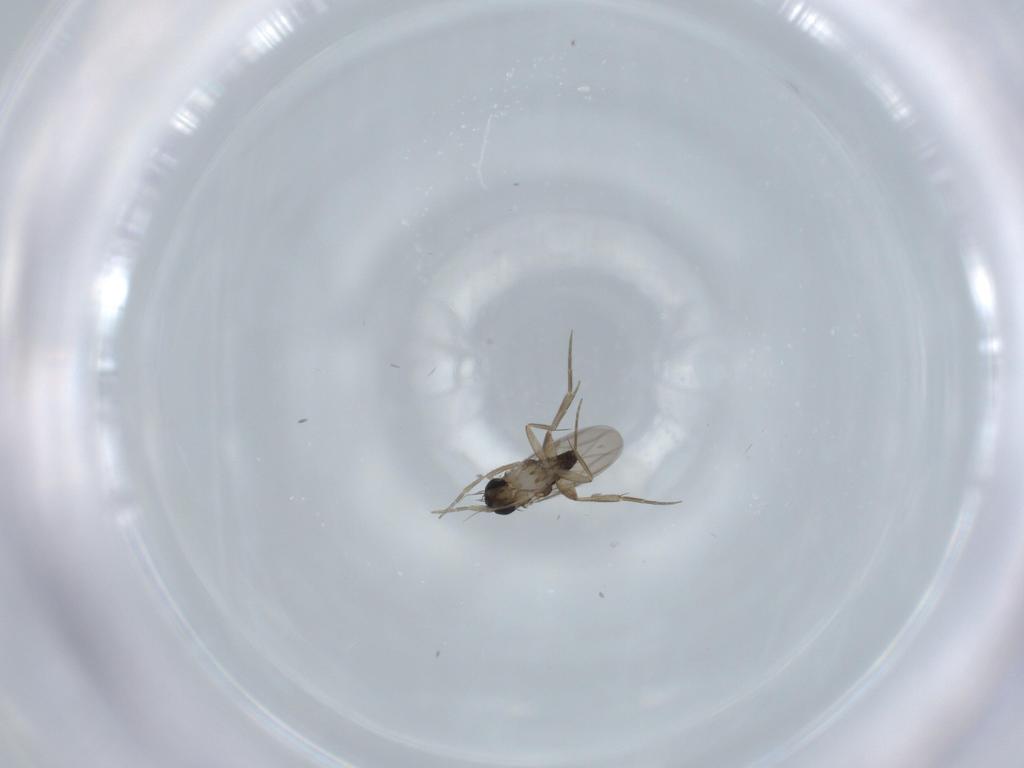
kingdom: Animalia
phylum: Arthropoda
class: Insecta
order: Diptera
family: Phoridae
